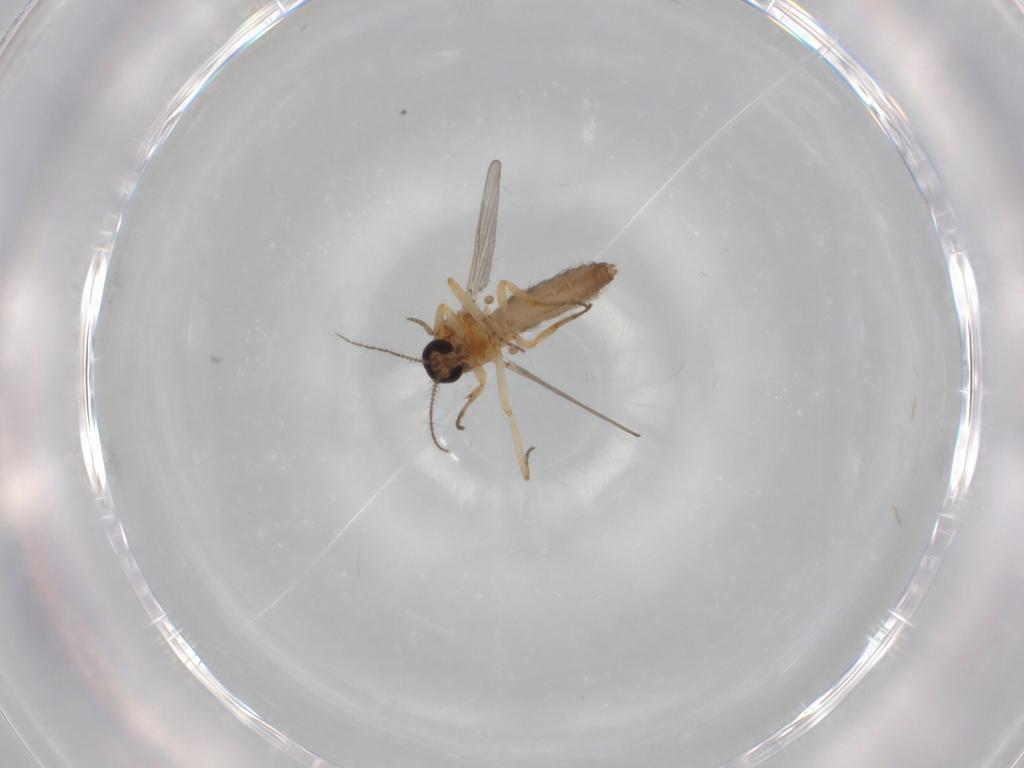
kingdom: Animalia
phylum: Arthropoda
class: Insecta
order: Diptera
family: Ceratopogonidae
